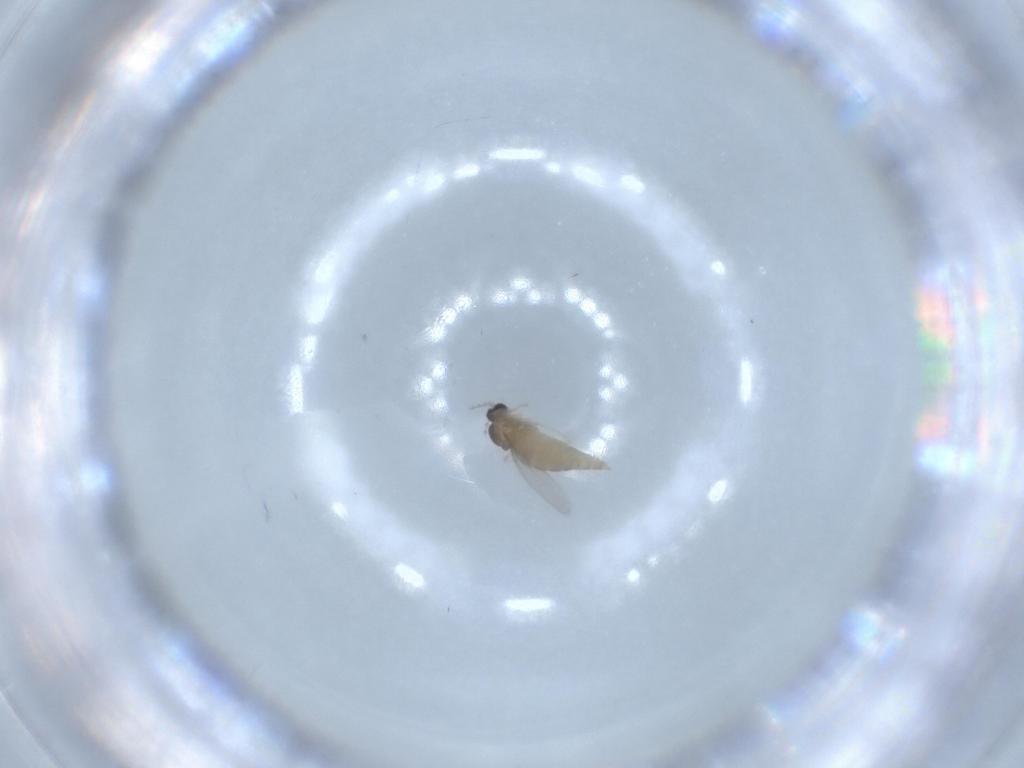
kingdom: Animalia
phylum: Arthropoda
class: Insecta
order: Diptera
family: Cecidomyiidae
